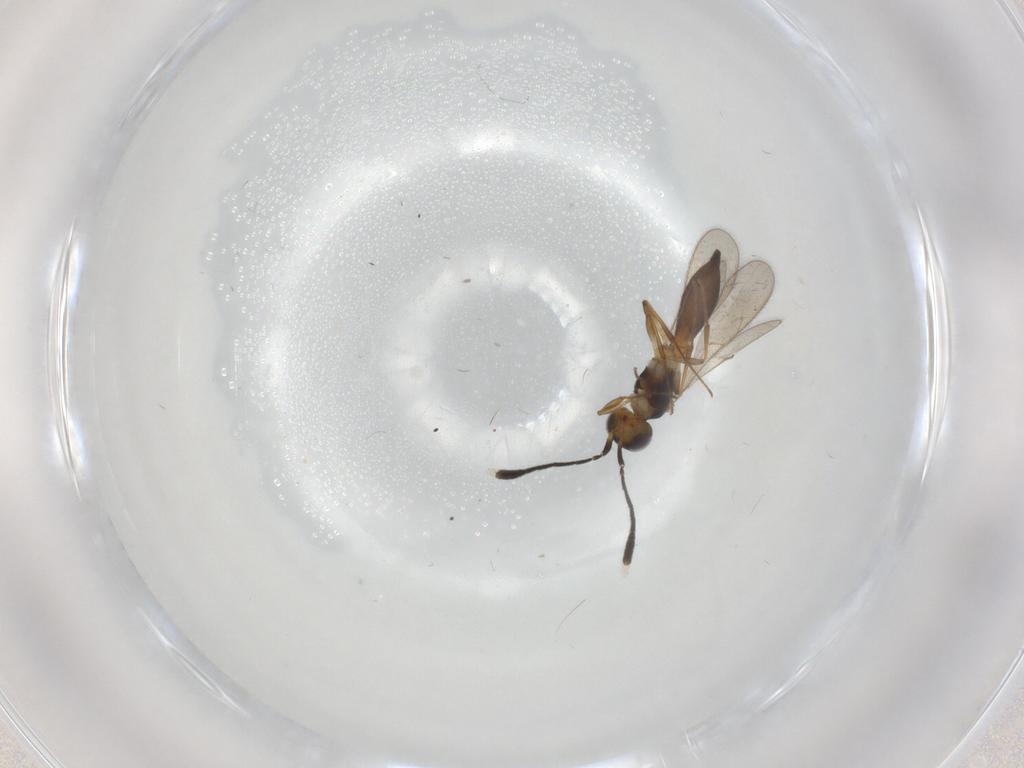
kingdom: Animalia
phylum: Arthropoda
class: Insecta
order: Hymenoptera
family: Bethylidae
